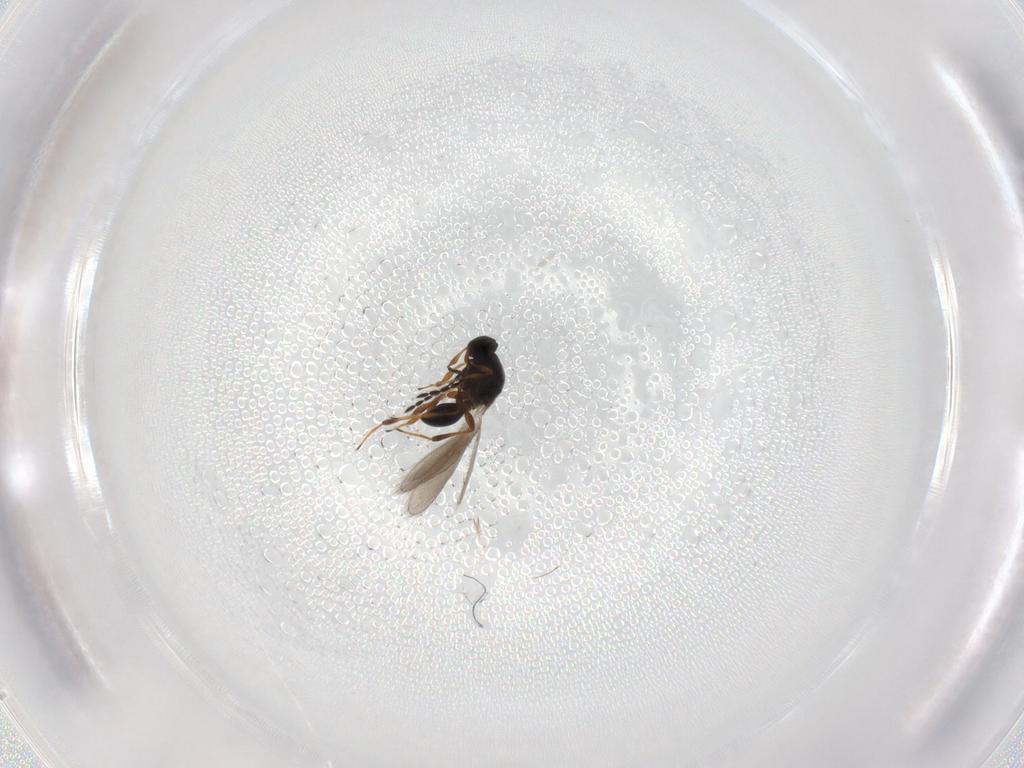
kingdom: Animalia
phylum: Arthropoda
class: Insecta
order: Hymenoptera
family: Platygastridae
